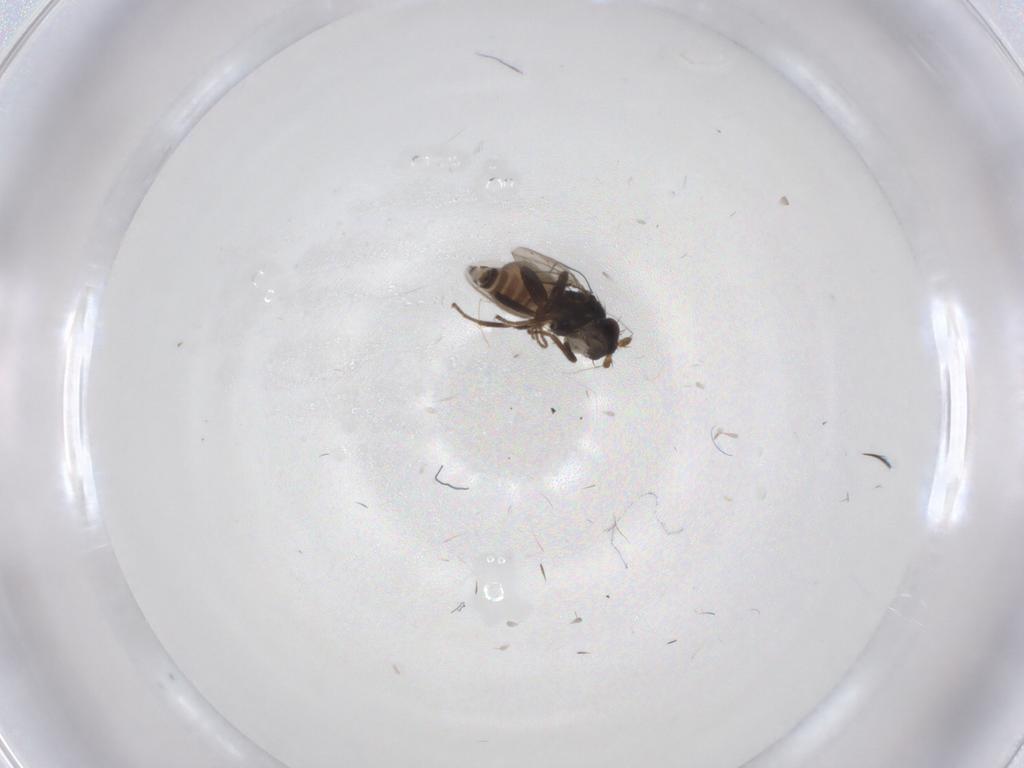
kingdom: Animalia
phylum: Arthropoda
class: Insecta
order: Diptera
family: Sphaeroceridae
